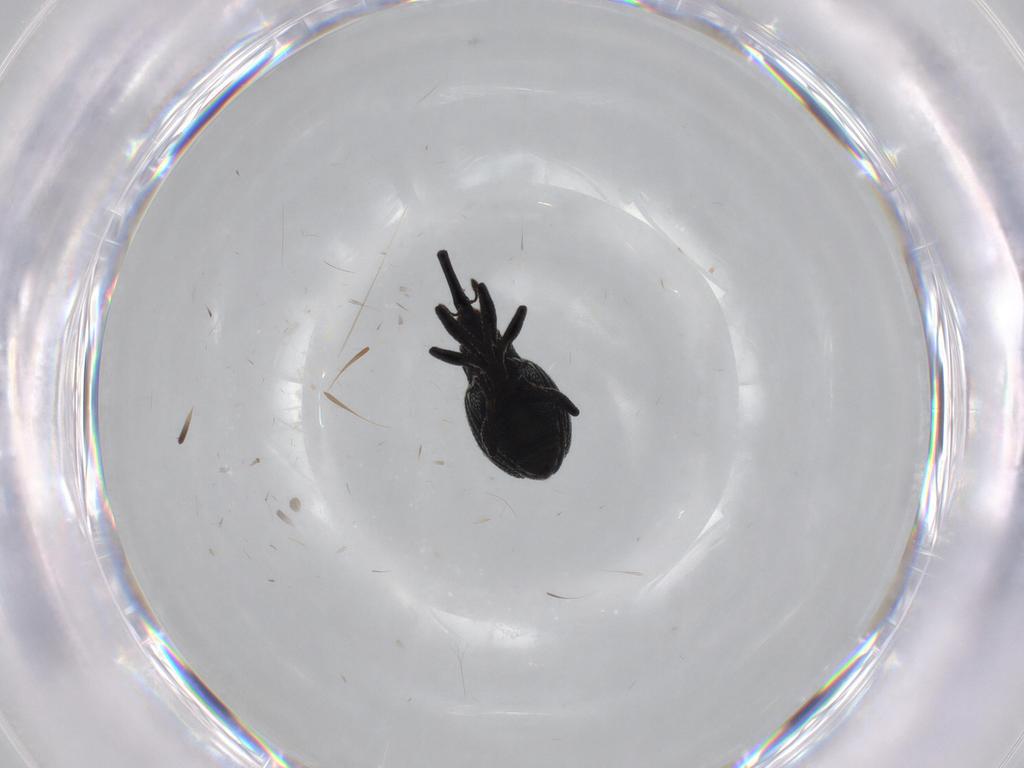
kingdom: Animalia
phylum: Arthropoda
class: Insecta
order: Coleoptera
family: Brentidae
